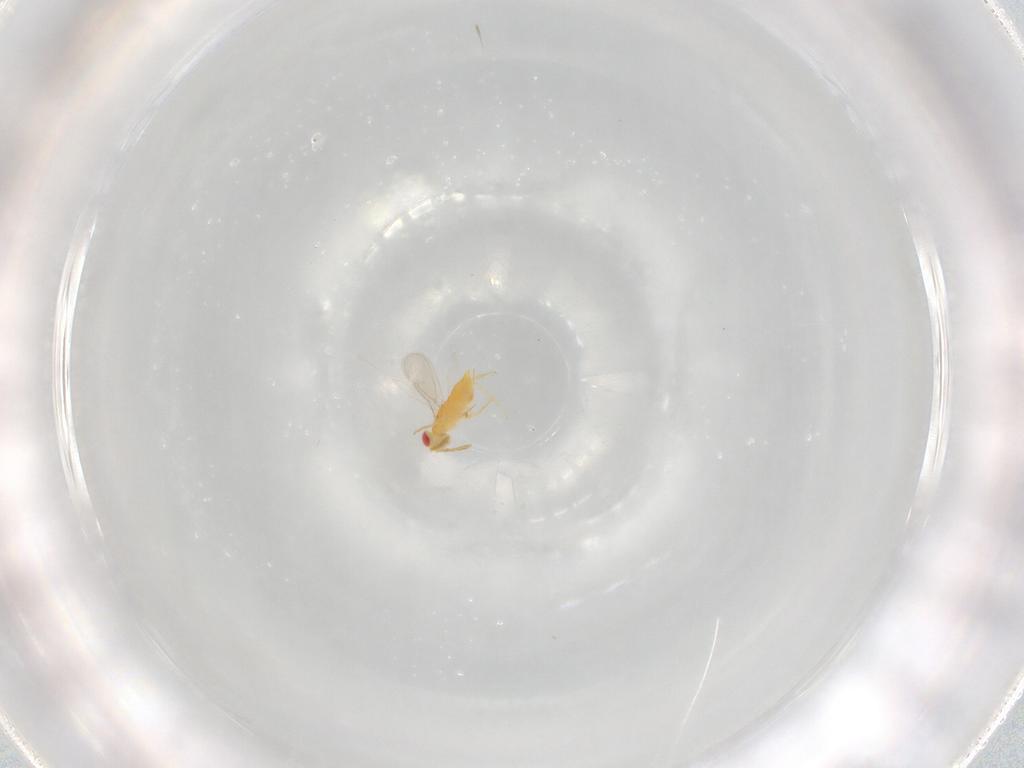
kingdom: Animalia
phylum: Arthropoda
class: Insecta
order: Hymenoptera
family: Aphelinidae
